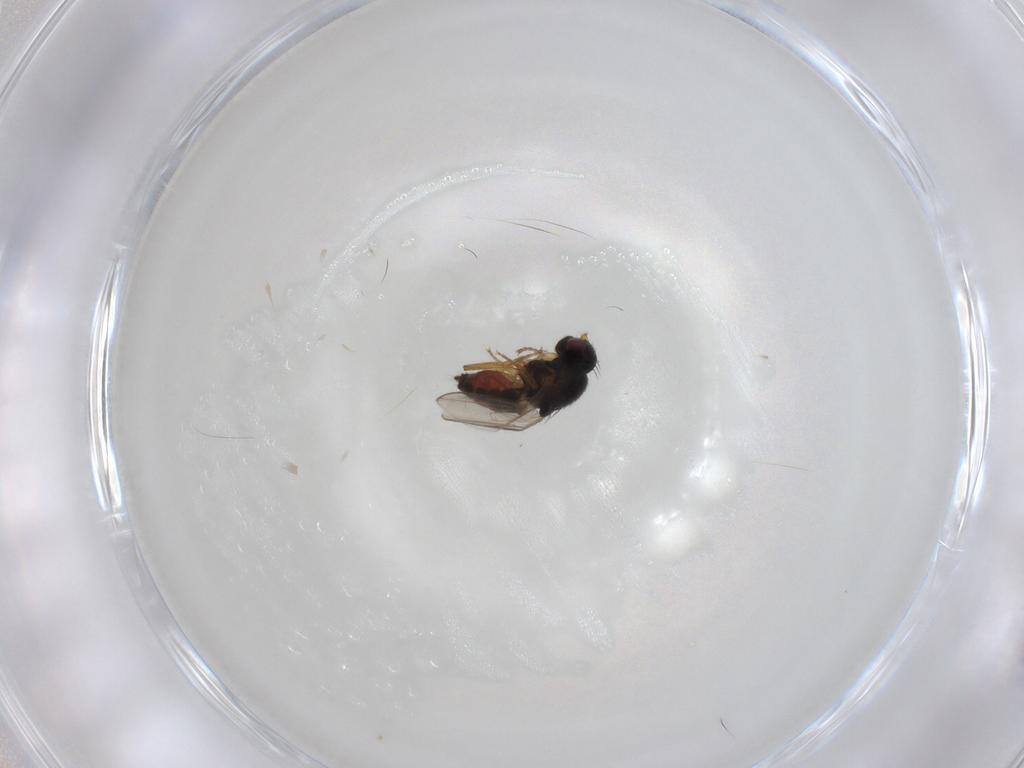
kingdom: Animalia
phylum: Arthropoda
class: Insecta
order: Diptera
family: Sphaeroceridae
